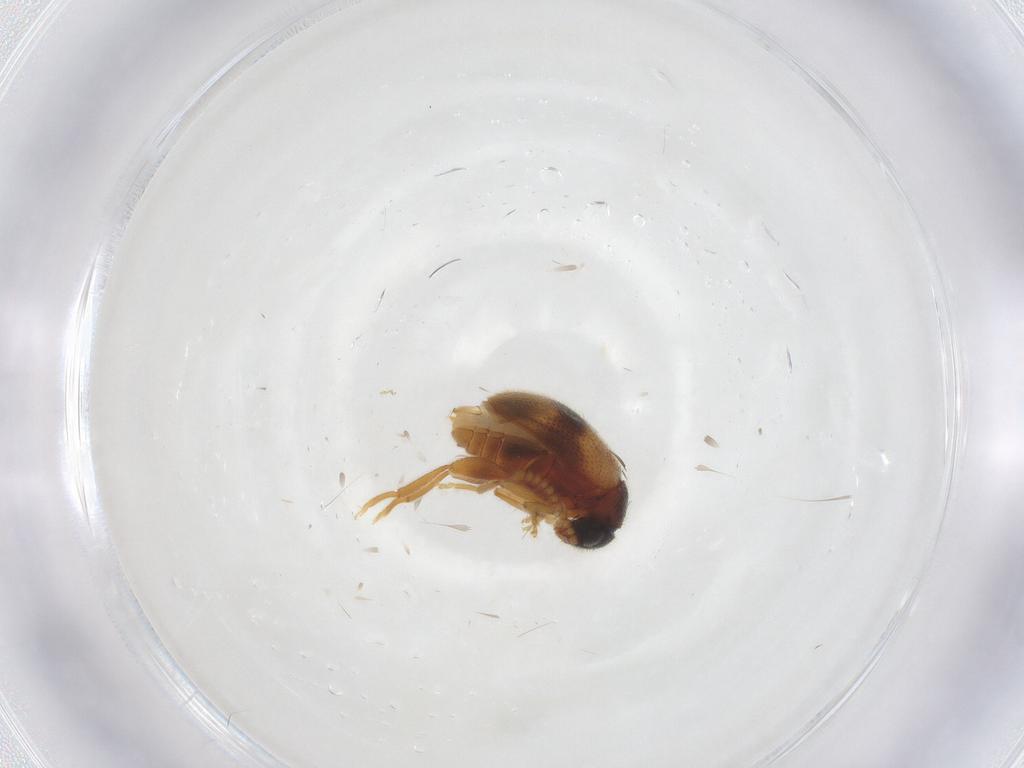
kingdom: Animalia
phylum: Arthropoda
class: Insecta
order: Coleoptera
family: Aderidae
